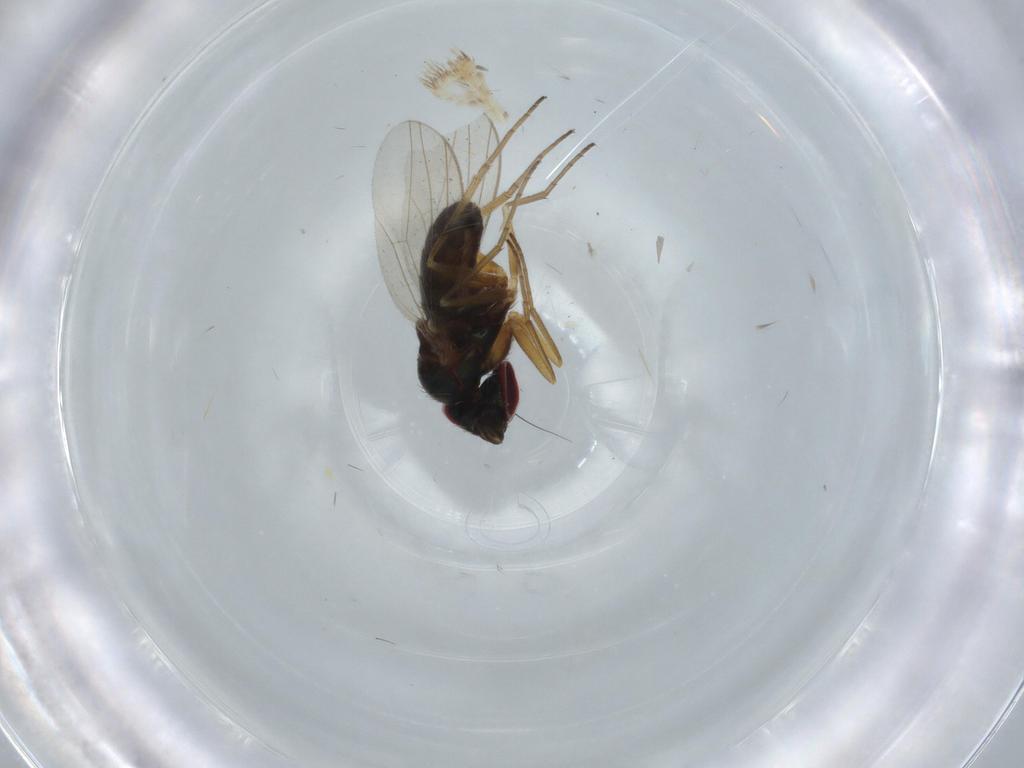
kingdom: Animalia
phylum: Arthropoda
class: Insecta
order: Diptera
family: Dolichopodidae
